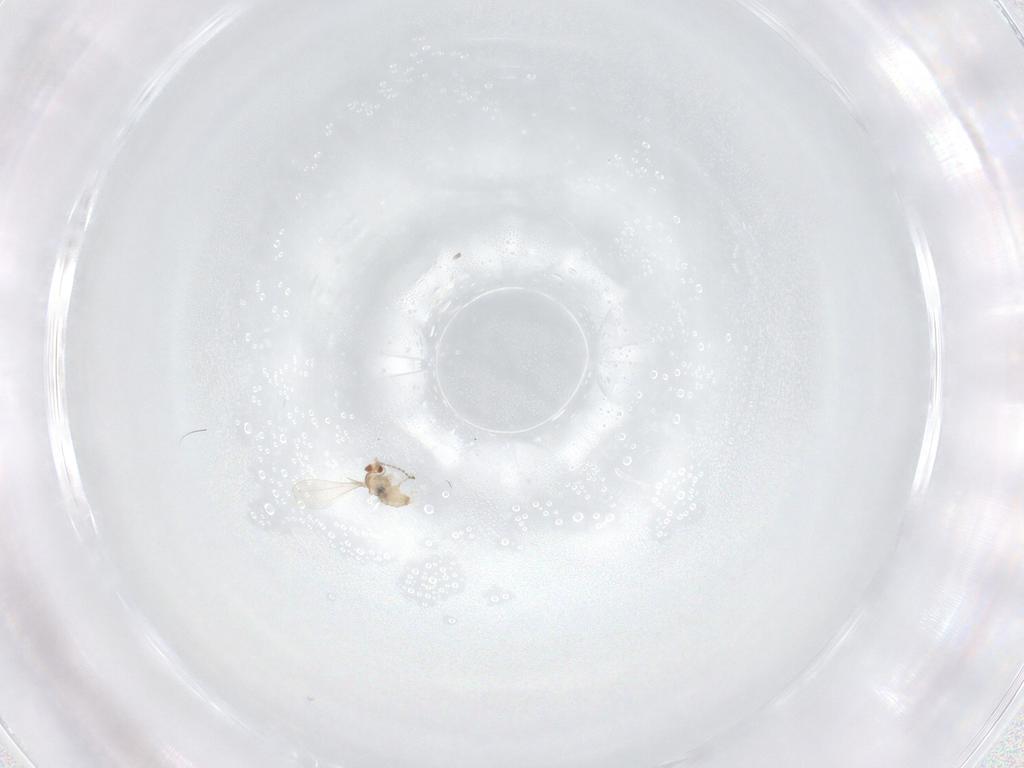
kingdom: Animalia
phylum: Arthropoda
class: Insecta
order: Diptera
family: Cecidomyiidae
